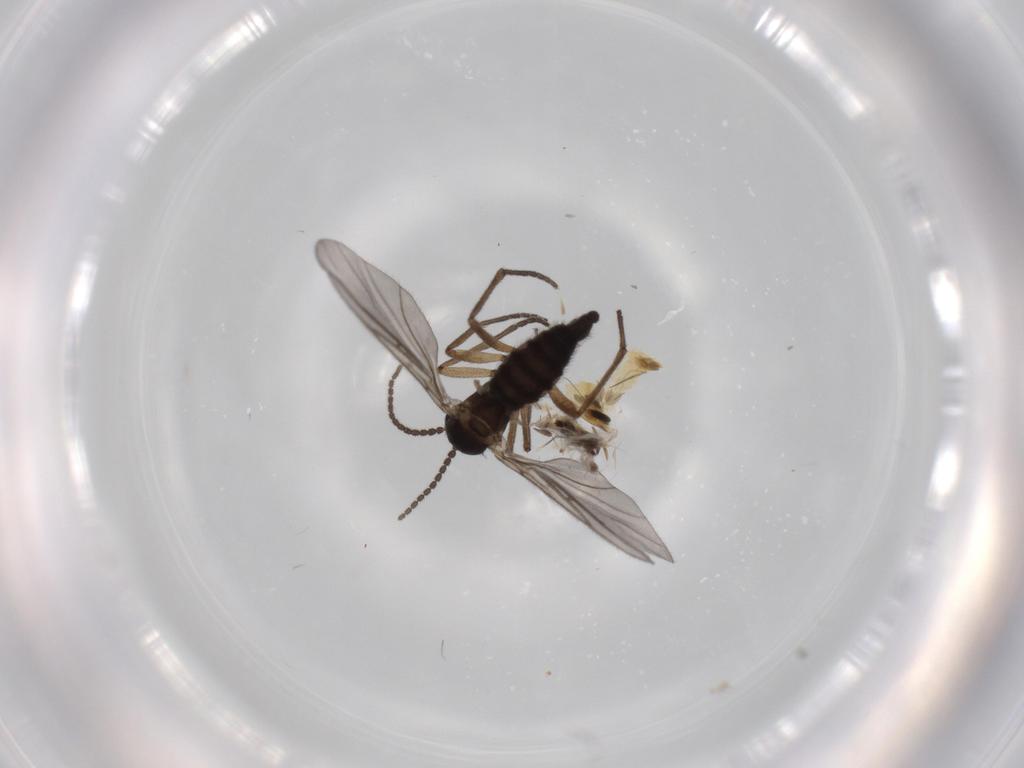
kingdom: Animalia
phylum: Arthropoda
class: Insecta
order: Diptera
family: Sciaridae
